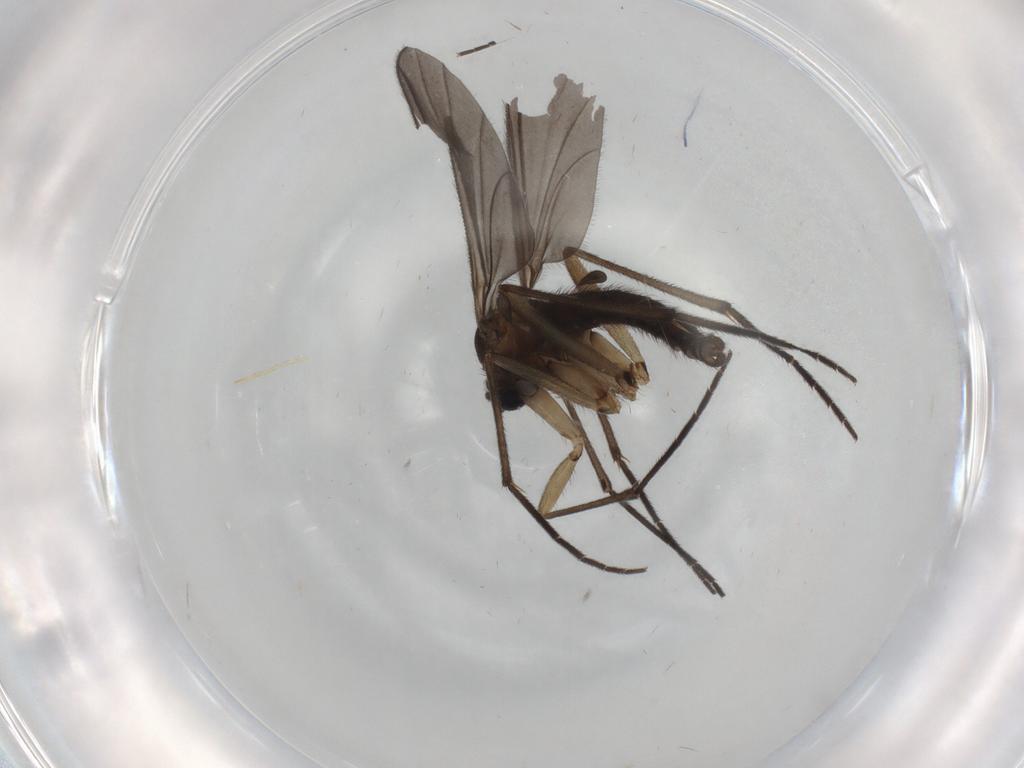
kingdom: Animalia
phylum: Arthropoda
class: Insecta
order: Diptera
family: Sciaridae
